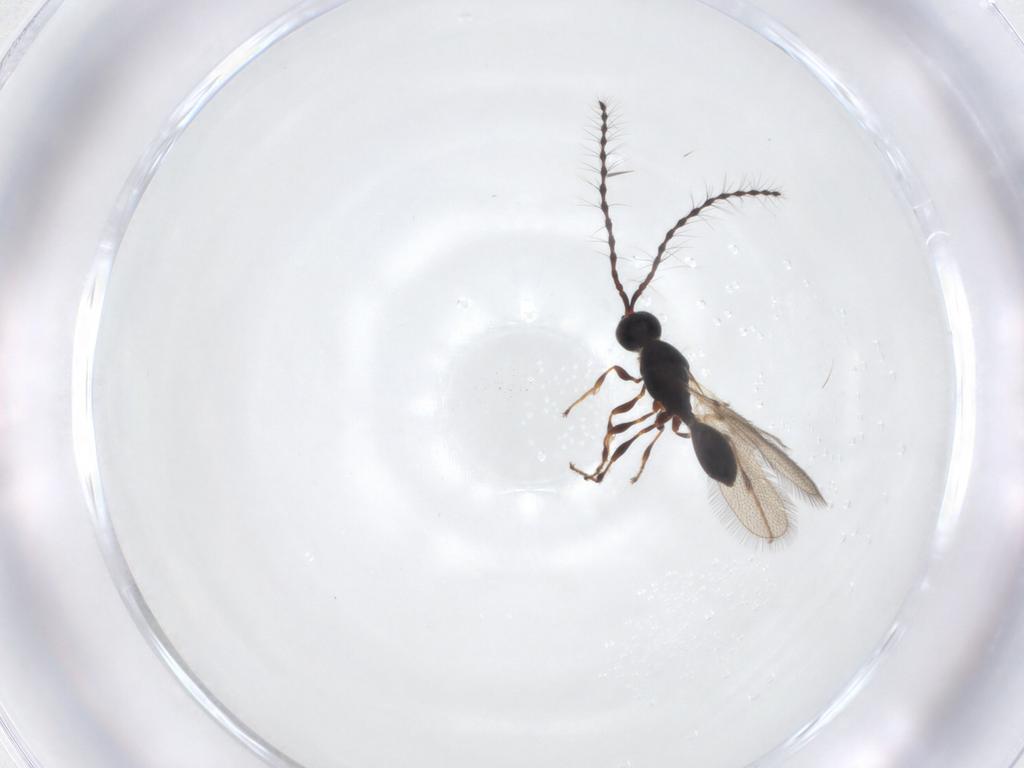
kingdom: Animalia
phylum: Arthropoda
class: Insecta
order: Hymenoptera
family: Diapriidae
